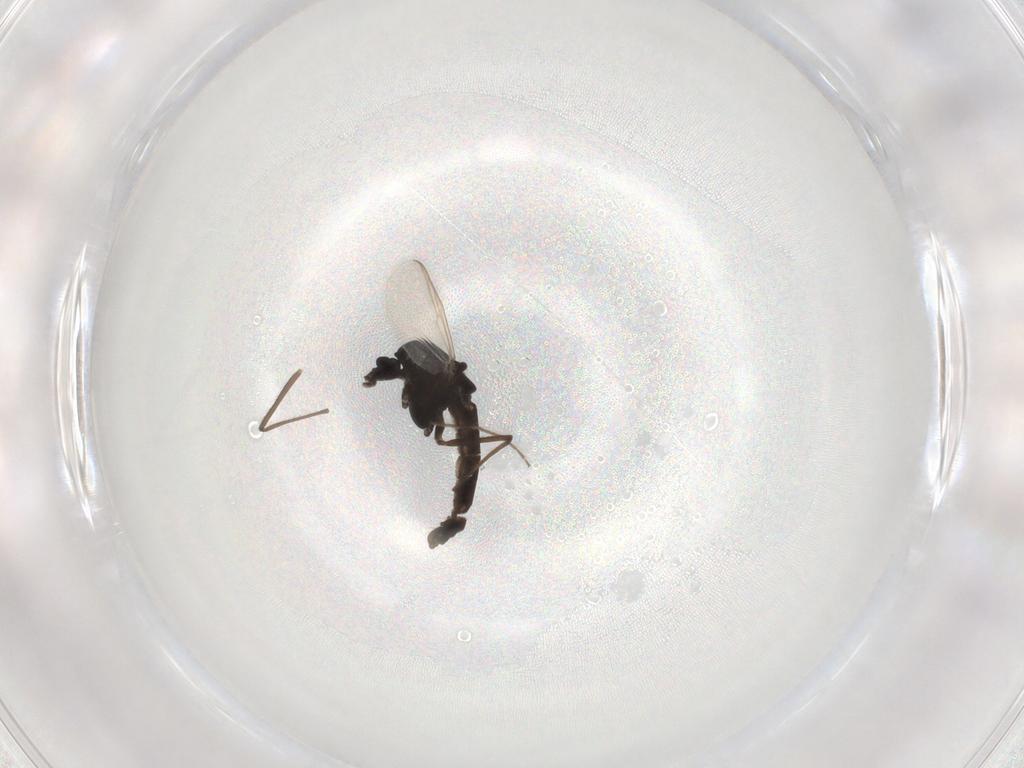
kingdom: Animalia
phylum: Arthropoda
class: Insecta
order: Diptera
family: Chironomidae
